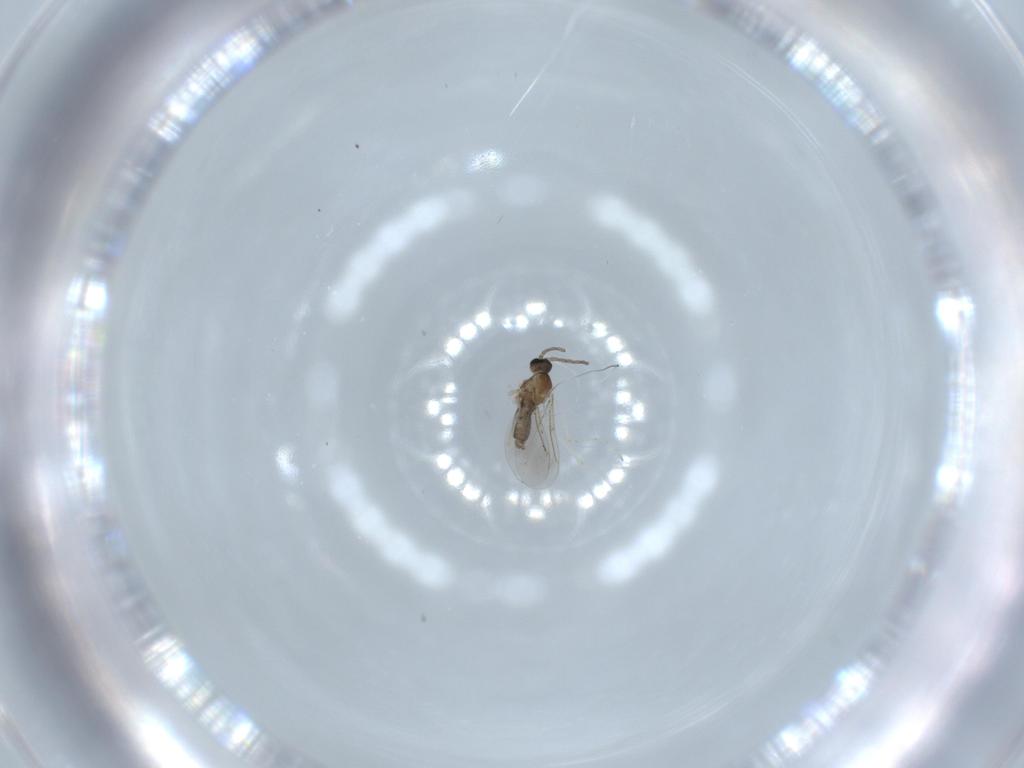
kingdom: Animalia
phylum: Arthropoda
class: Insecta
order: Diptera
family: Cecidomyiidae
